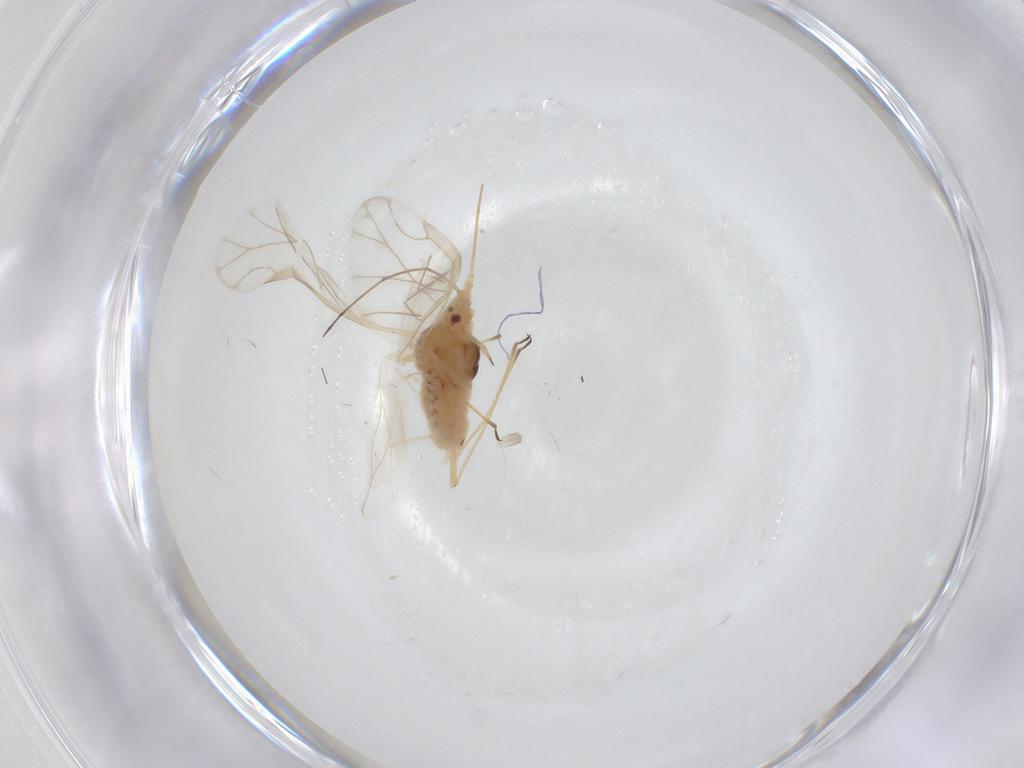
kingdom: Animalia
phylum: Arthropoda
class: Insecta
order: Hemiptera
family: Aphididae
